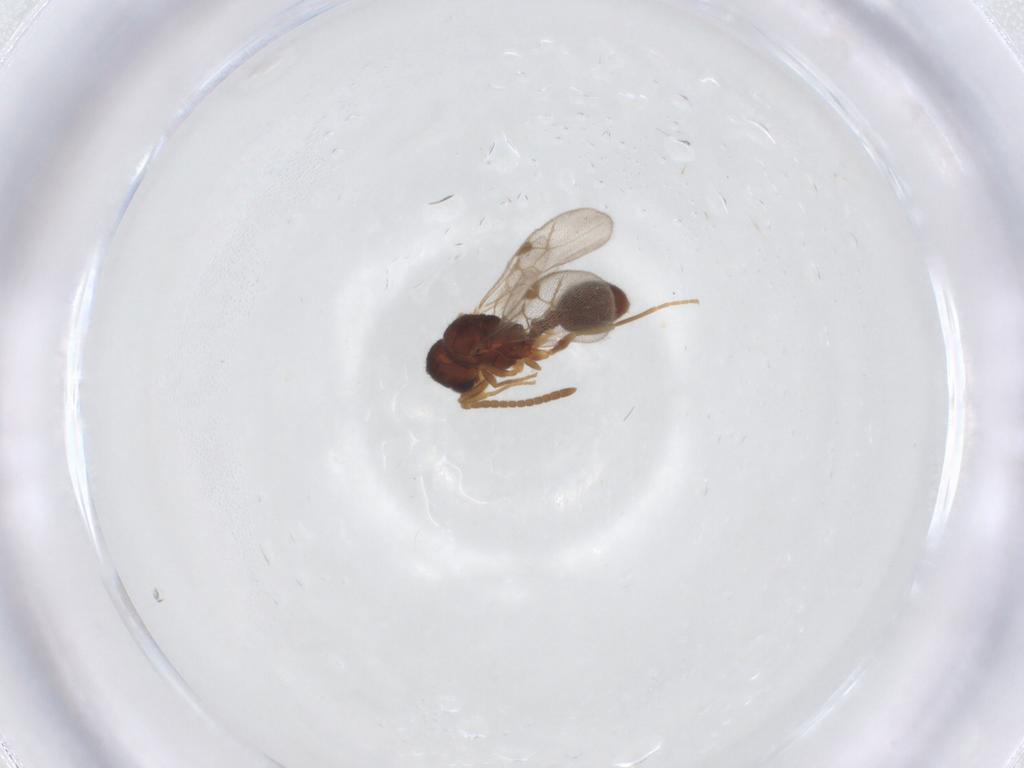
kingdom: Animalia
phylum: Arthropoda
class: Insecta
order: Hymenoptera
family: Formicidae
